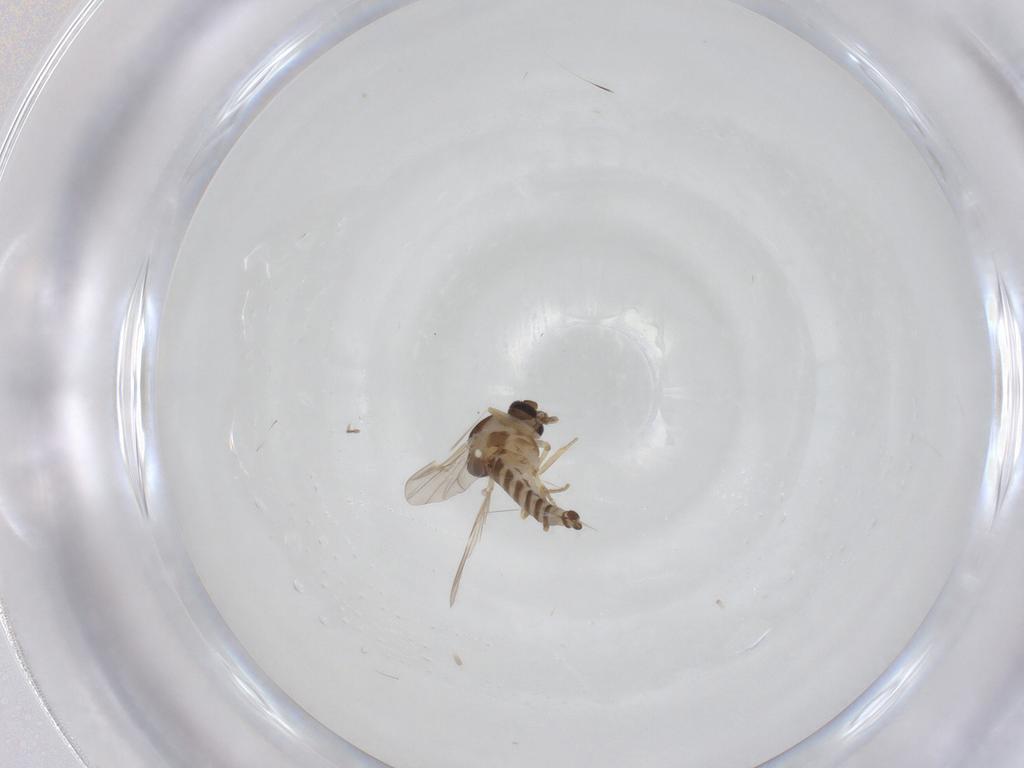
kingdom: Animalia
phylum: Arthropoda
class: Insecta
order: Diptera
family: Ceratopogonidae
